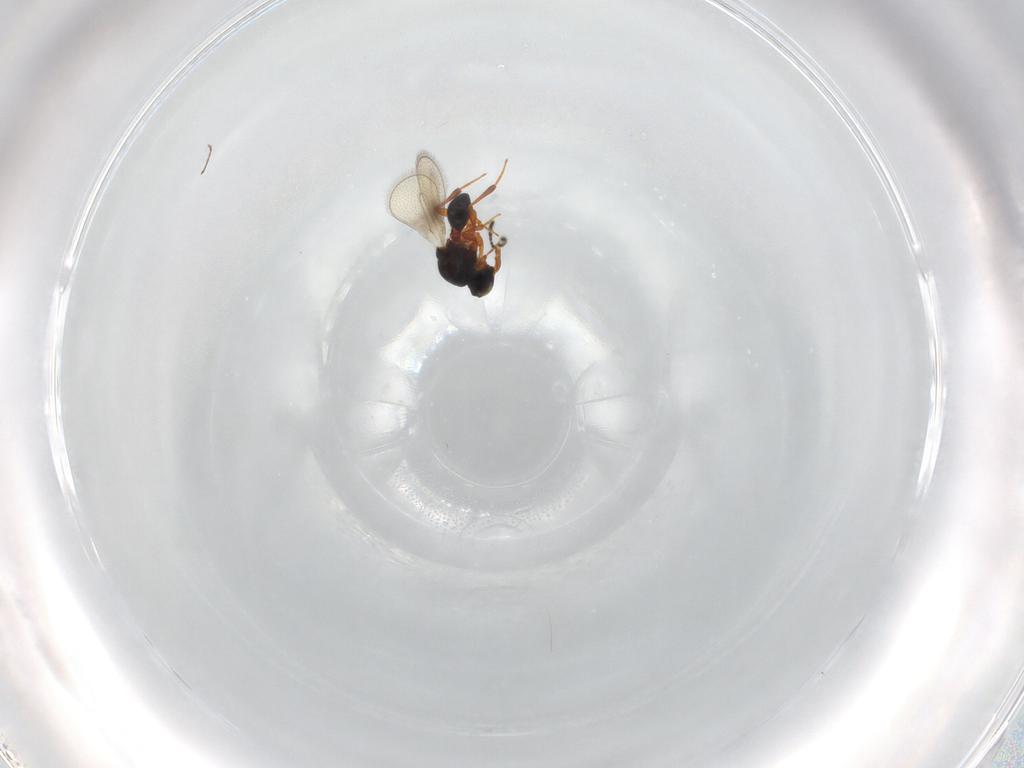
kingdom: Animalia
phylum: Arthropoda
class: Insecta
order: Hymenoptera
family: Platygastridae
